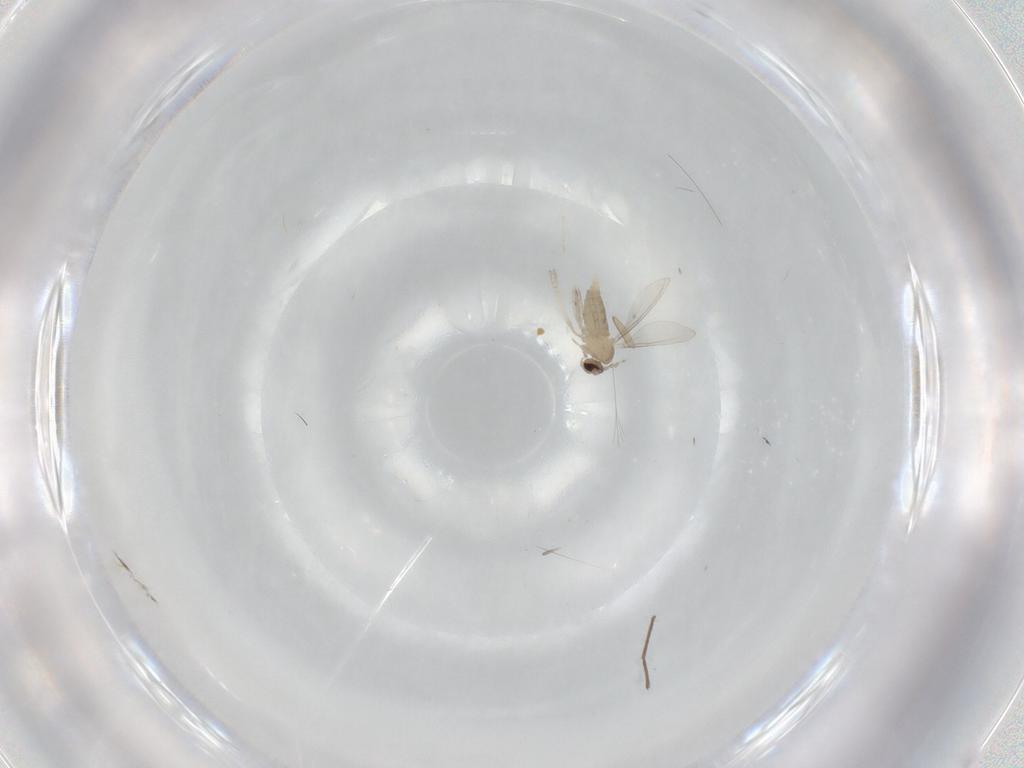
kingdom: Animalia
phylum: Arthropoda
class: Insecta
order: Diptera
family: Cecidomyiidae
